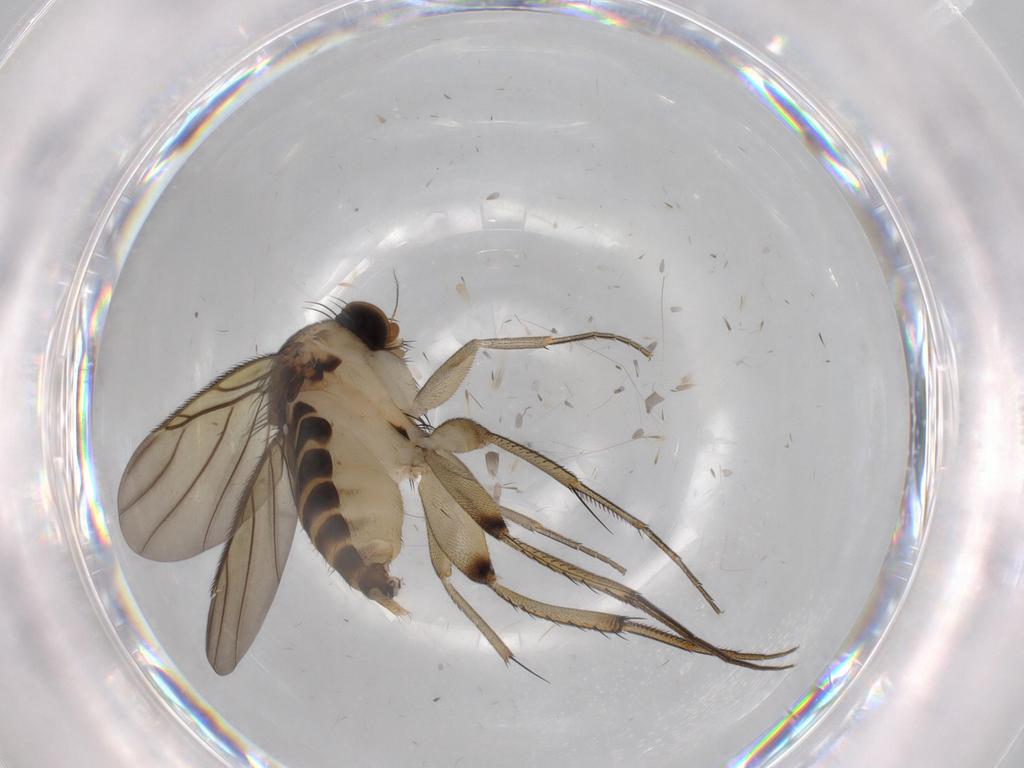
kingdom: Animalia
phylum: Arthropoda
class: Insecta
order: Diptera
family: Phoridae
